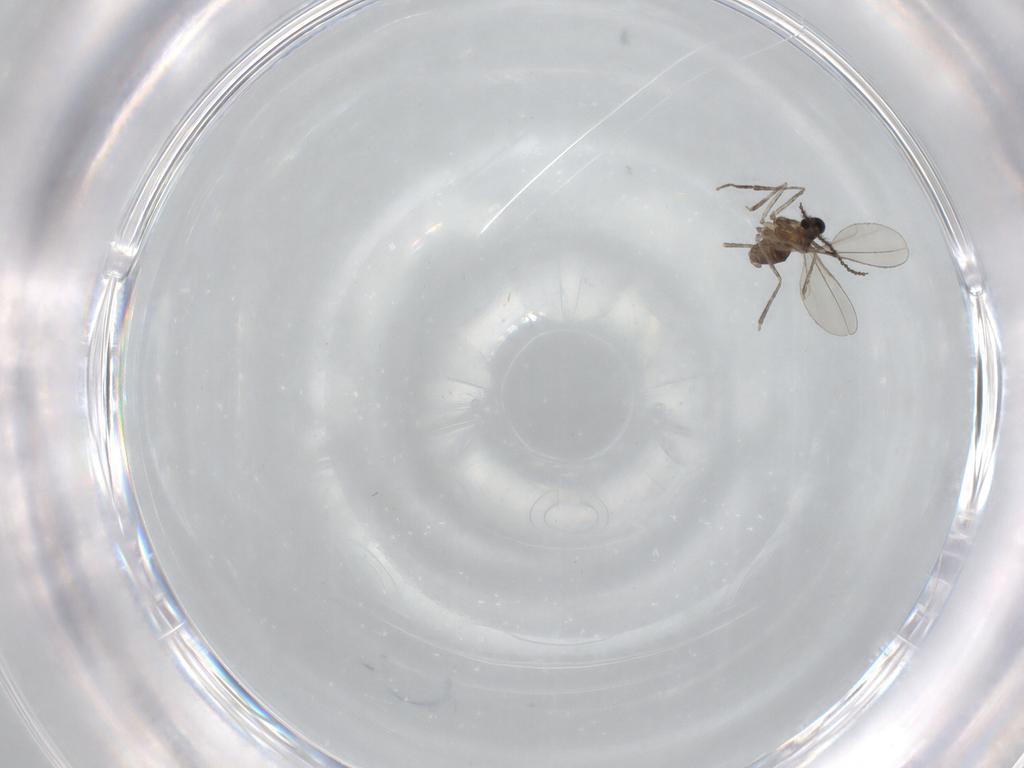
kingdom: Animalia
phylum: Arthropoda
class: Insecta
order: Diptera
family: Cecidomyiidae
